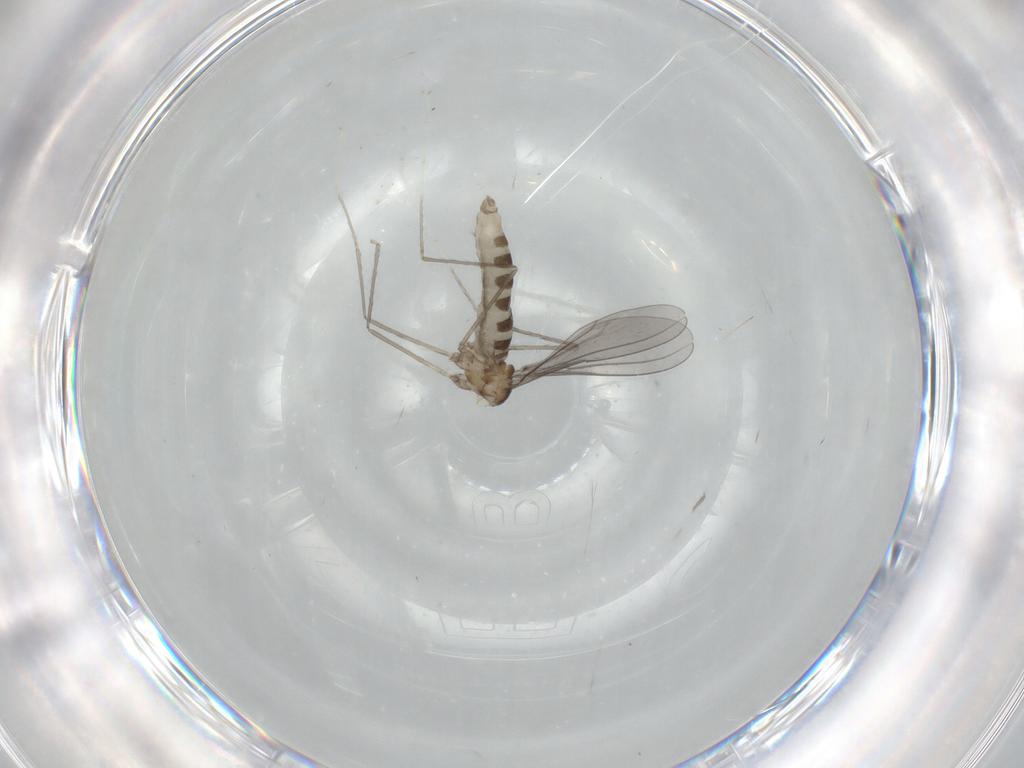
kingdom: Animalia
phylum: Arthropoda
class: Insecta
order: Diptera
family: Cecidomyiidae
